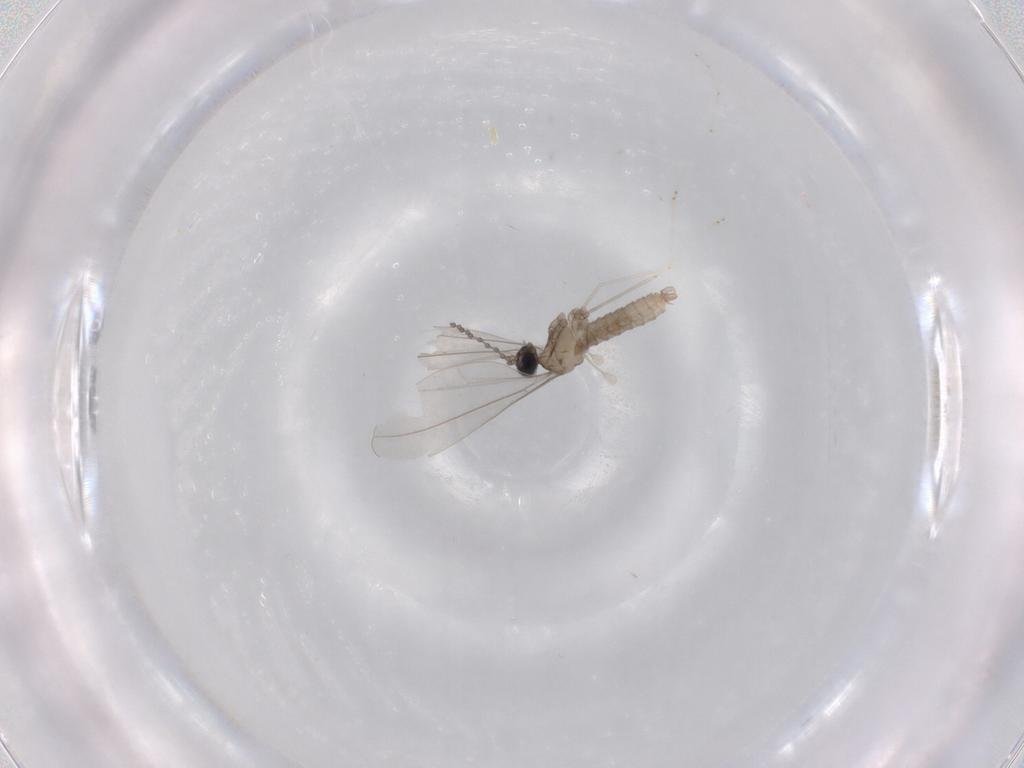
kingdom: Animalia
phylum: Arthropoda
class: Insecta
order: Diptera
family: Cecidomyiidae
